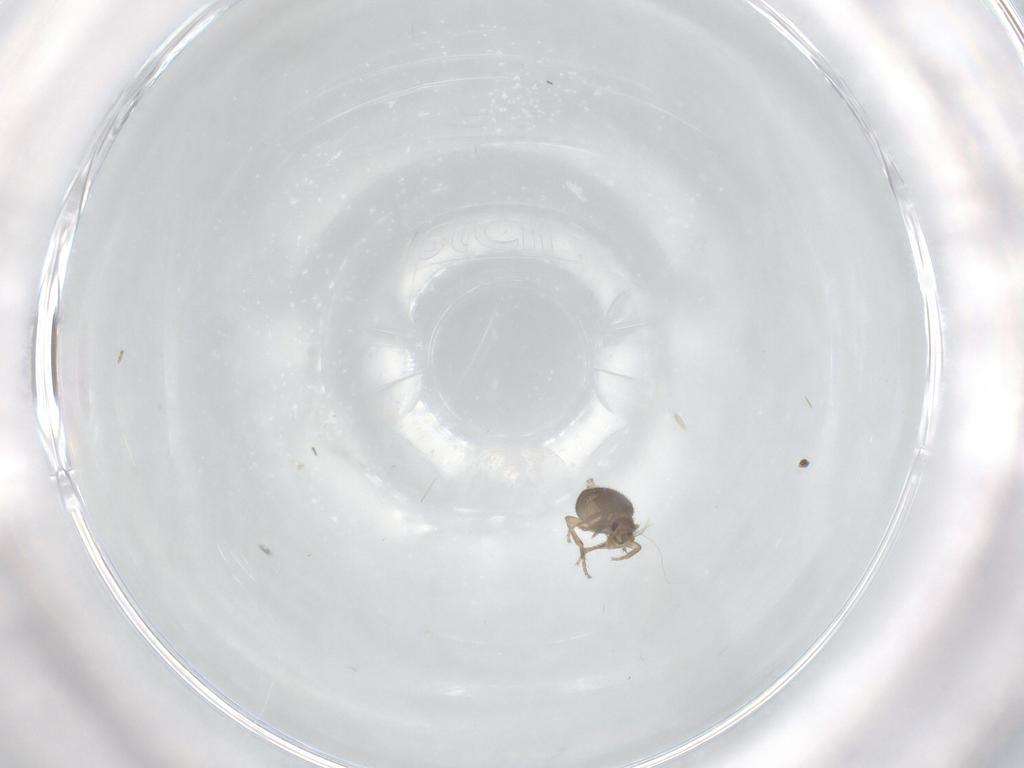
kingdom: Animalia
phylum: Arthropoda
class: Insecta
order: Diptera
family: Phoridae
